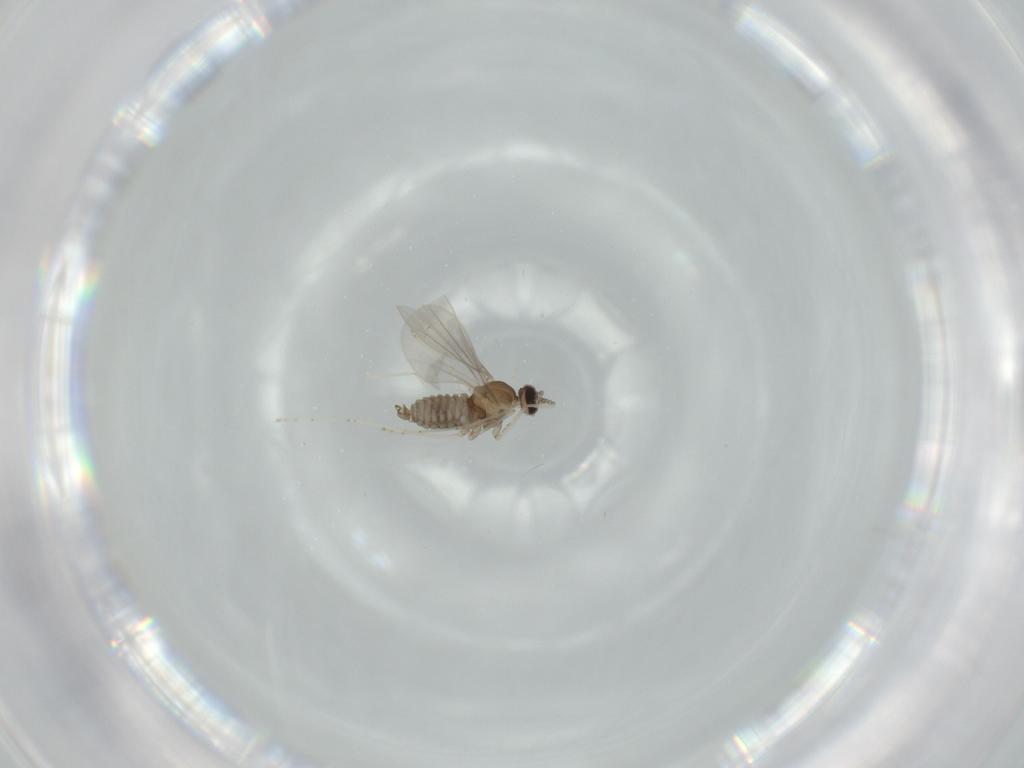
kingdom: Animalia
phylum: Arthropoda
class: Insecta
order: Diptera
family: Cecidomyiidae
